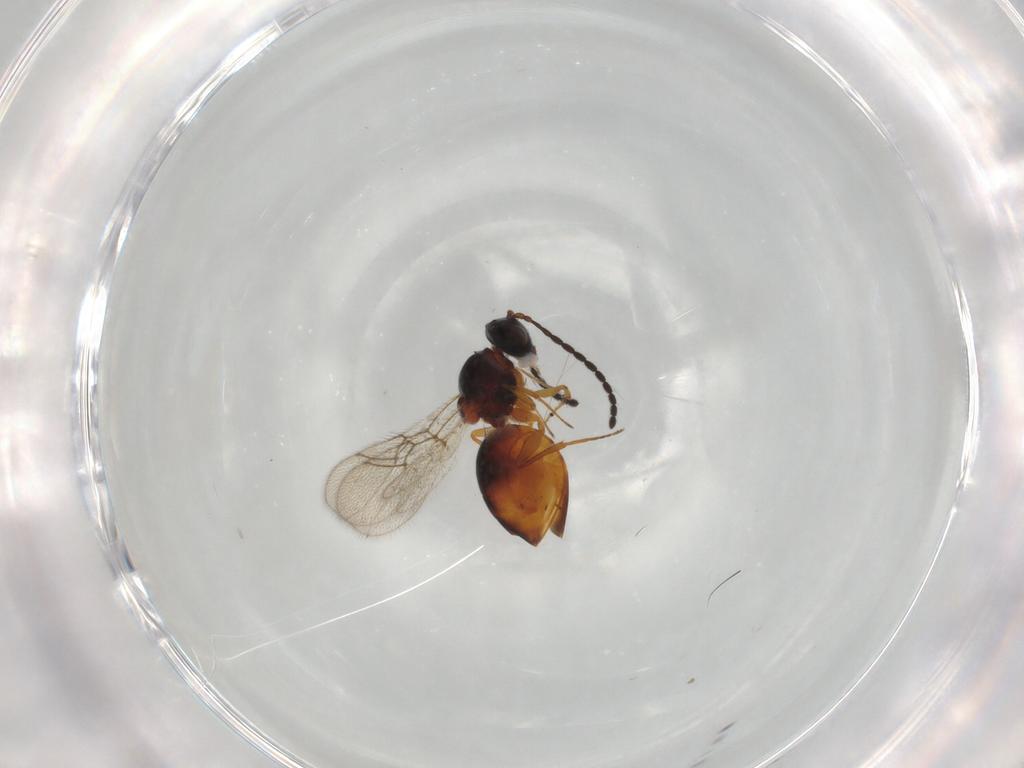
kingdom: Animalia
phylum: Arthropoda
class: Insecta
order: Hymenoptera
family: Figitidae
